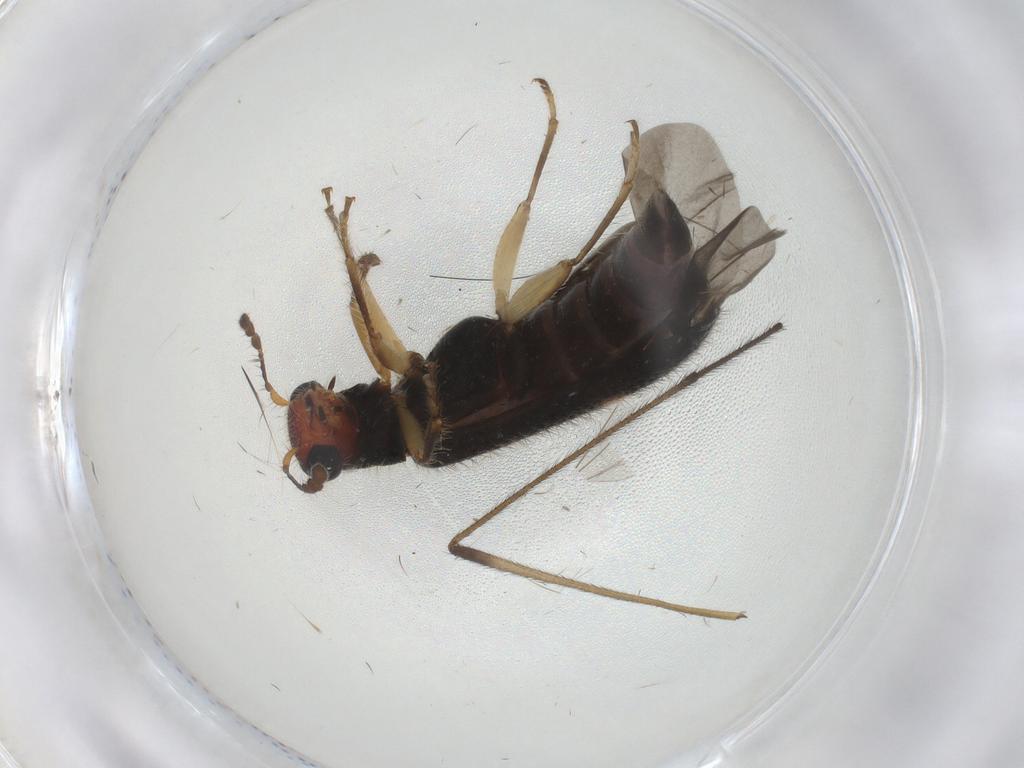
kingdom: Animalia
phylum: Arthropoda
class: Insecta
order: Coleoptera
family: Cleridae
